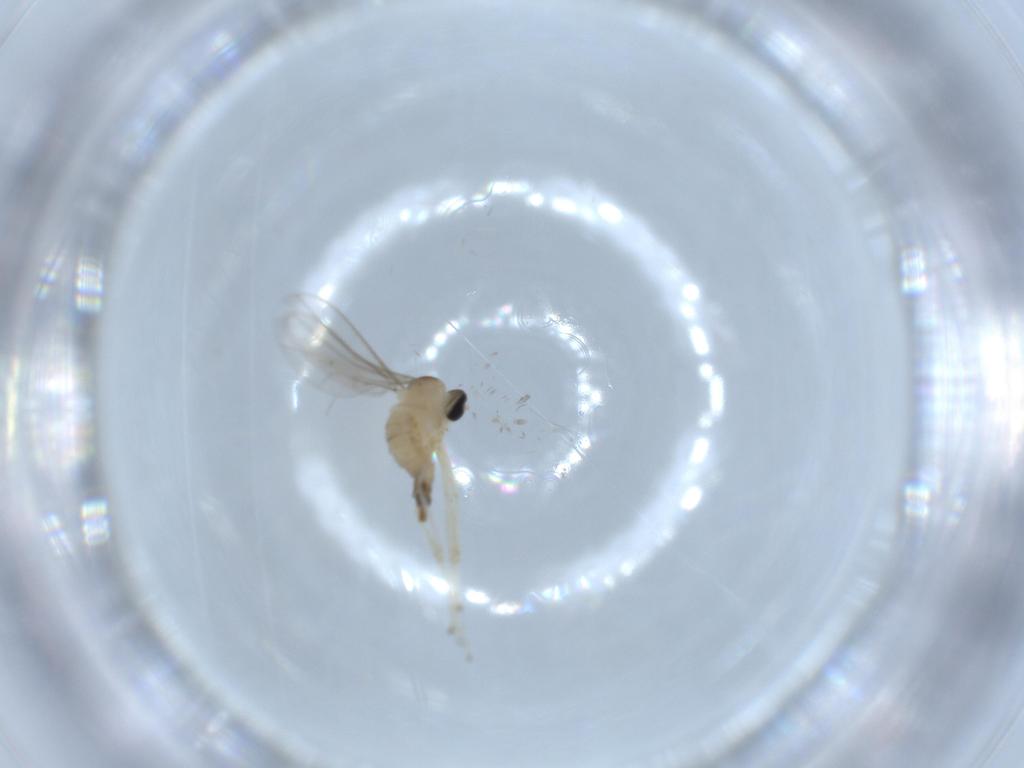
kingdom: Animalia
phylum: Arthropoda
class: Insecta
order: Diptera
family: Cecidomyiidae
